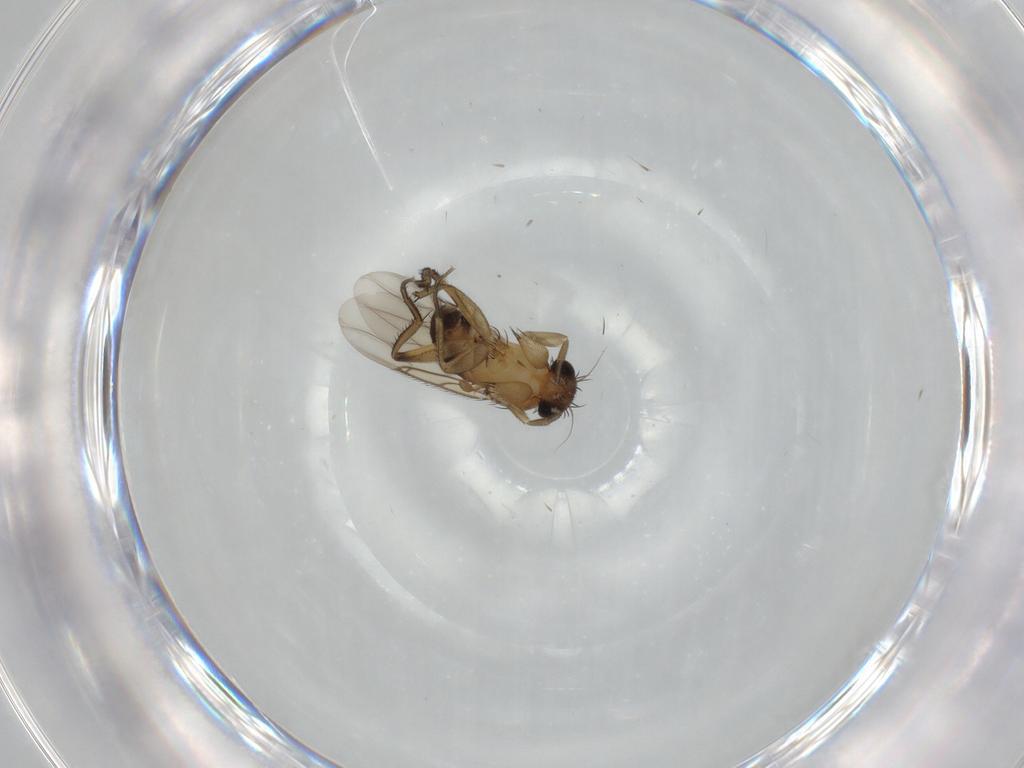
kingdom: Animalia
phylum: Arthropoda
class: Insecta
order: Diptera
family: Phoridae
